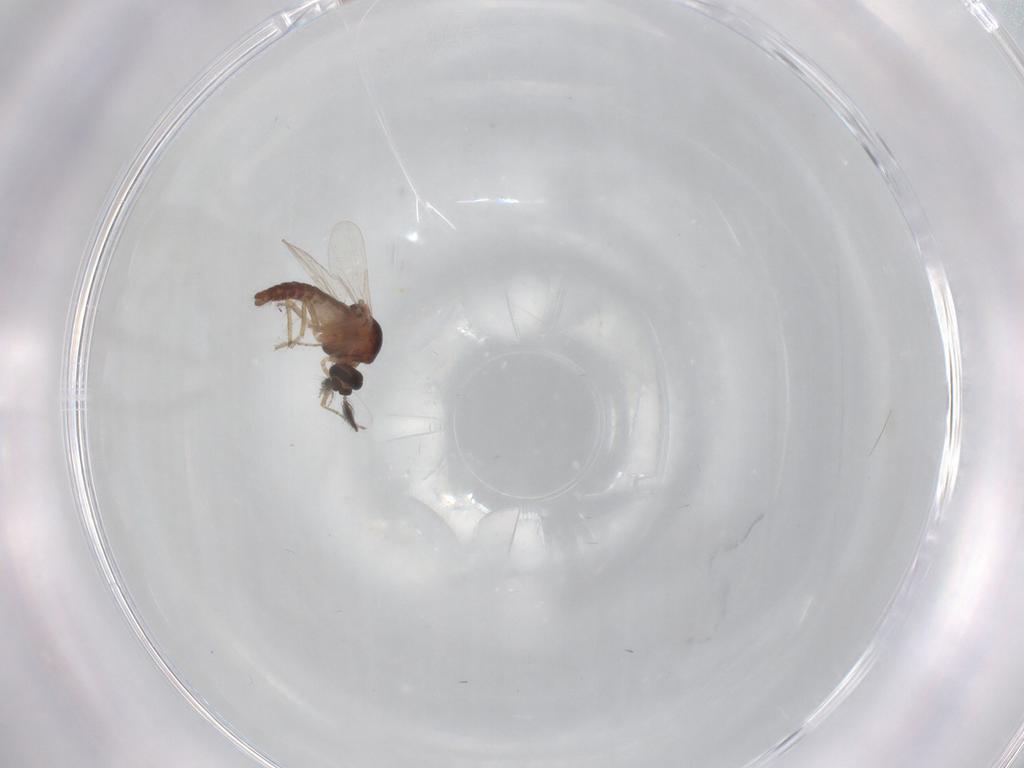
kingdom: Animalia
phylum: Arthropoda
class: Insecta
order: Diptera
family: Ceratopogonidae
